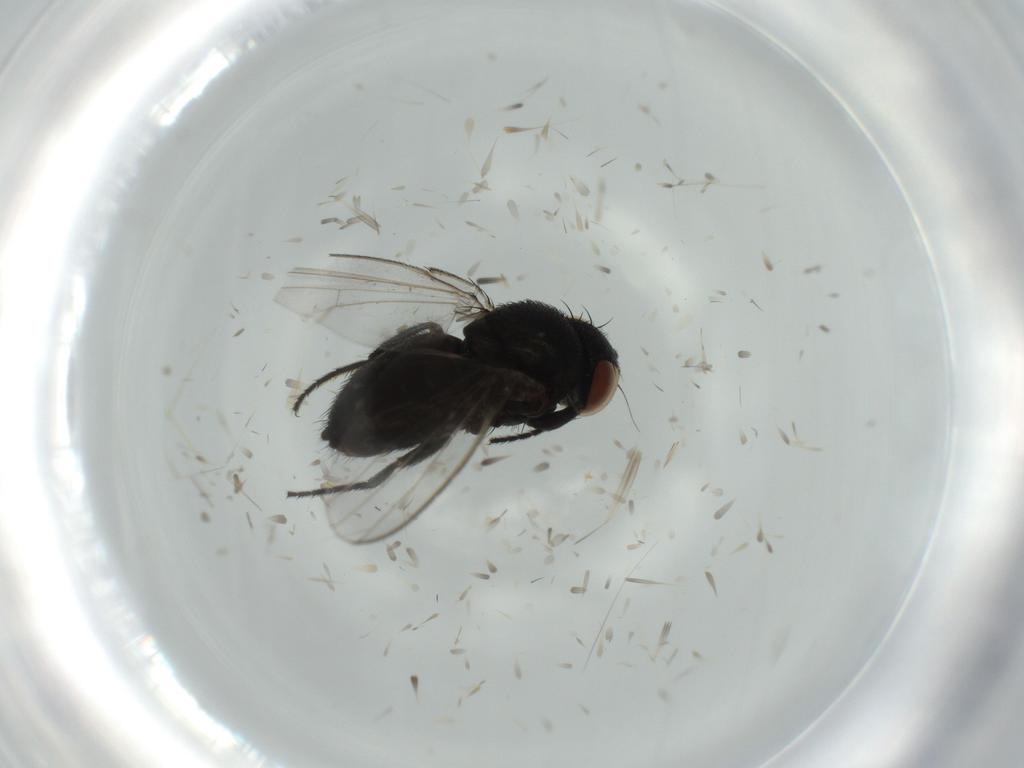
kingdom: Animalia
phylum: Arthropoda
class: Insecta
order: Diptera
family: Milichiidae
